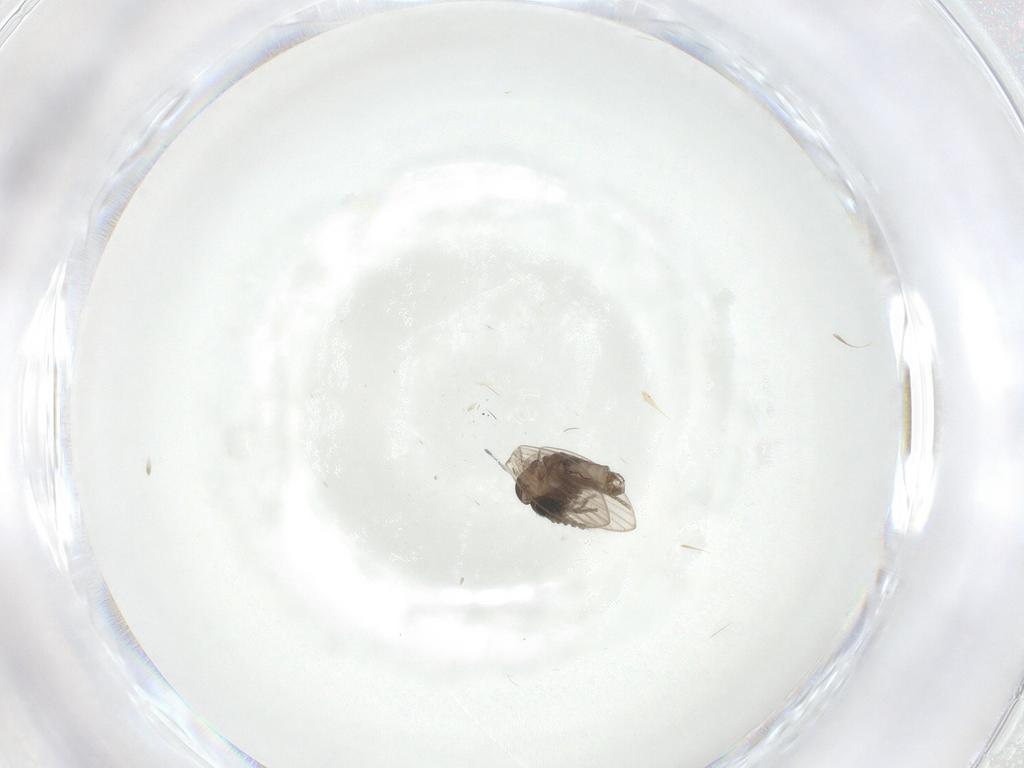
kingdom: Animalia
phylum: Arthropoda
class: Insecta
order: Diptera
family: Psychodidae
